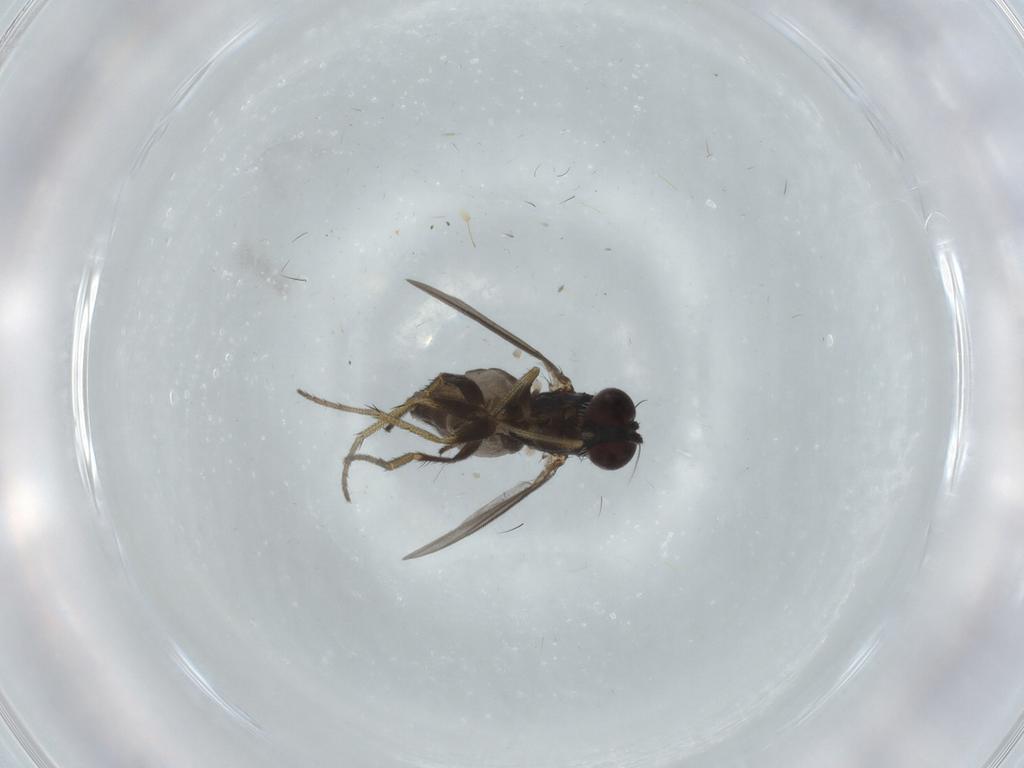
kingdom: Animalia
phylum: Arthropoda
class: Insecta
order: Diptera
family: Dolichopodidae
